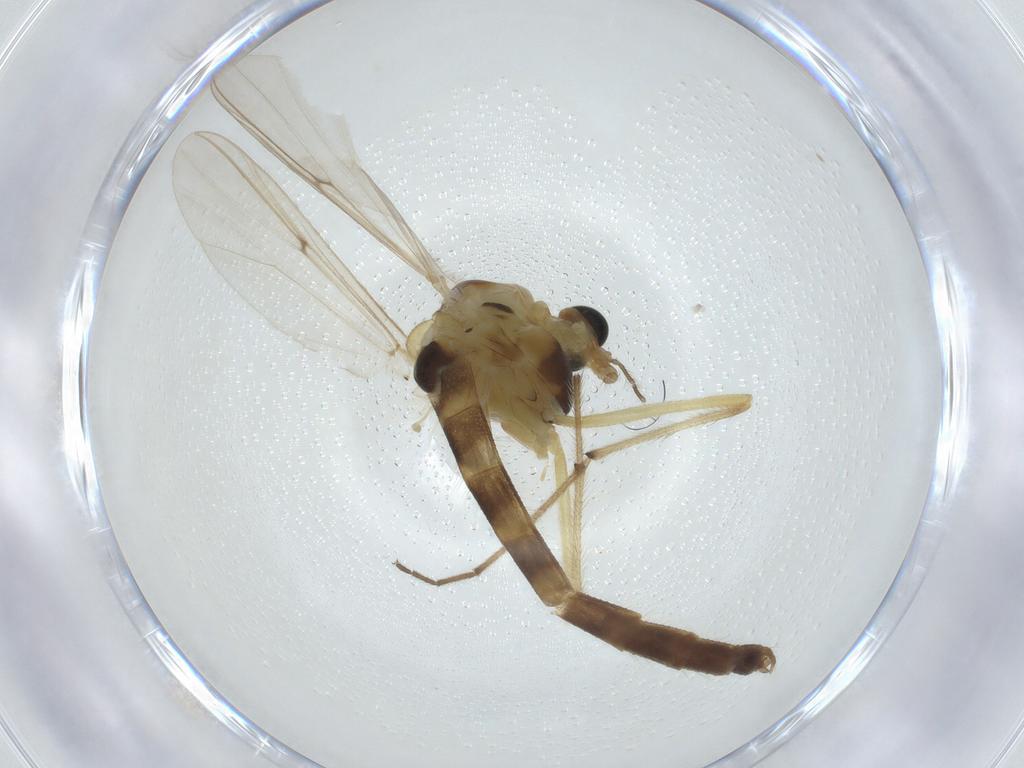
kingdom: Animalia
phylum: Arthropoda
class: Insecta
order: Diptera
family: Chironomidae
